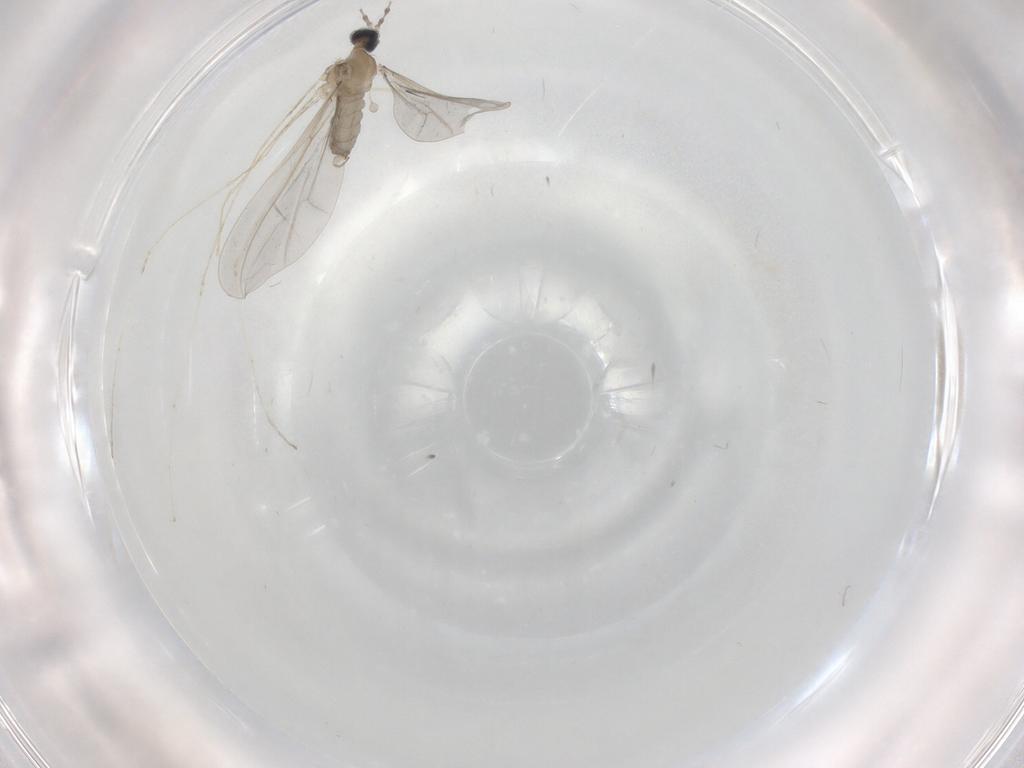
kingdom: Animalia
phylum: Arthropoda
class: Insecta
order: Diptera
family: Cecidomyiidae
